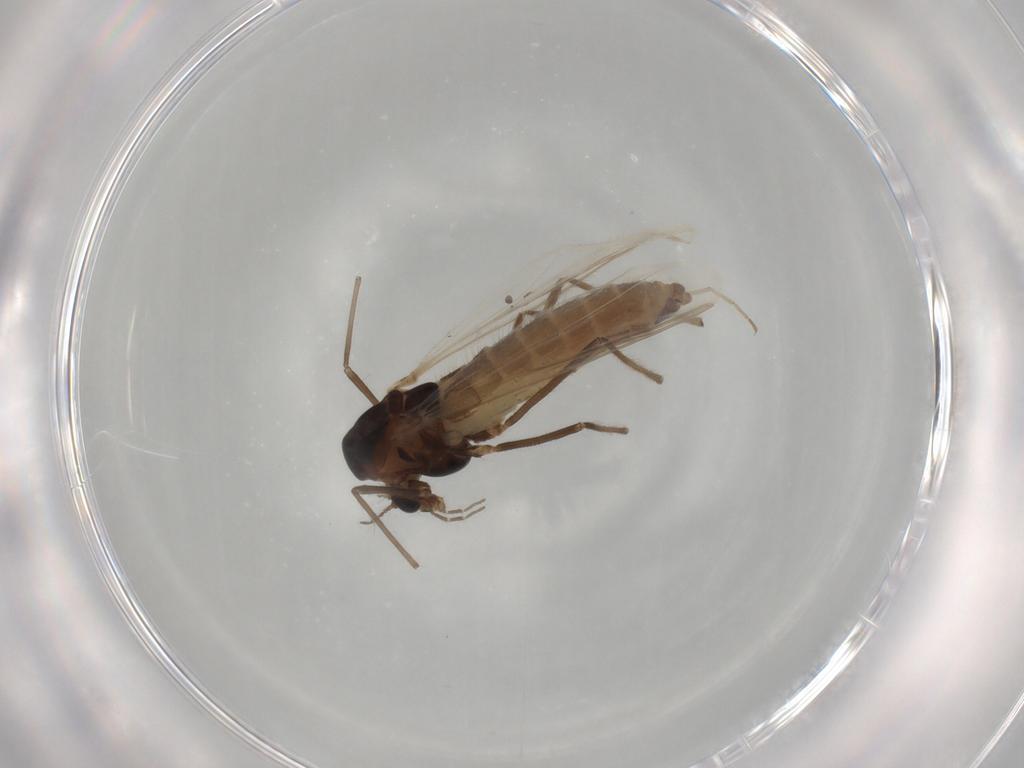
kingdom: Animalia
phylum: Arthropoda
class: Insecta
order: Diptera
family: Chironomidae
